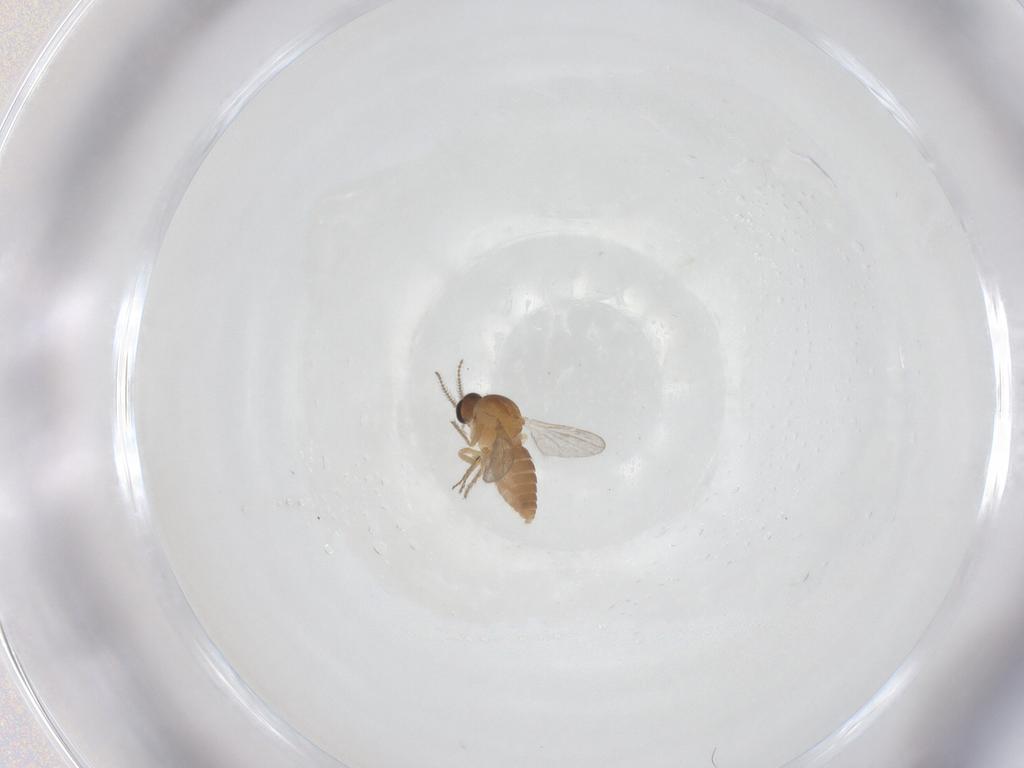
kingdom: Animalia
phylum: Arthropoda
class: Insecta
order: Diptera
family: Ceratopogonidae
